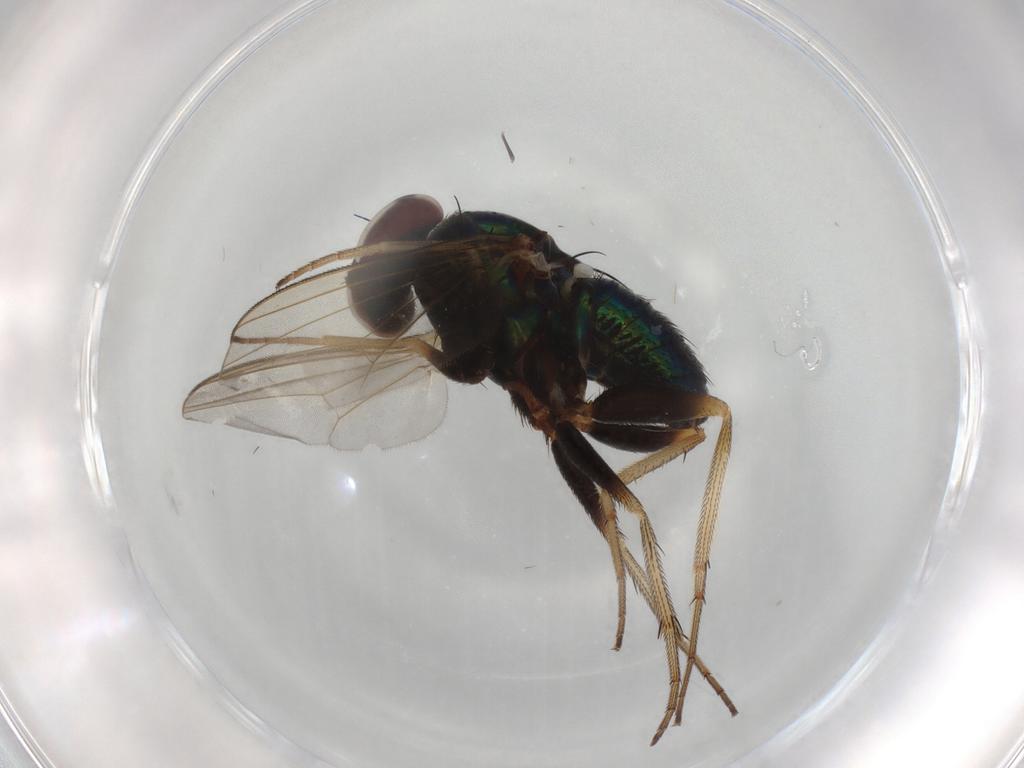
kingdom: Animalia
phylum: Arthropoda
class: Insecta
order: Diptera
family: Dolichopodidae
